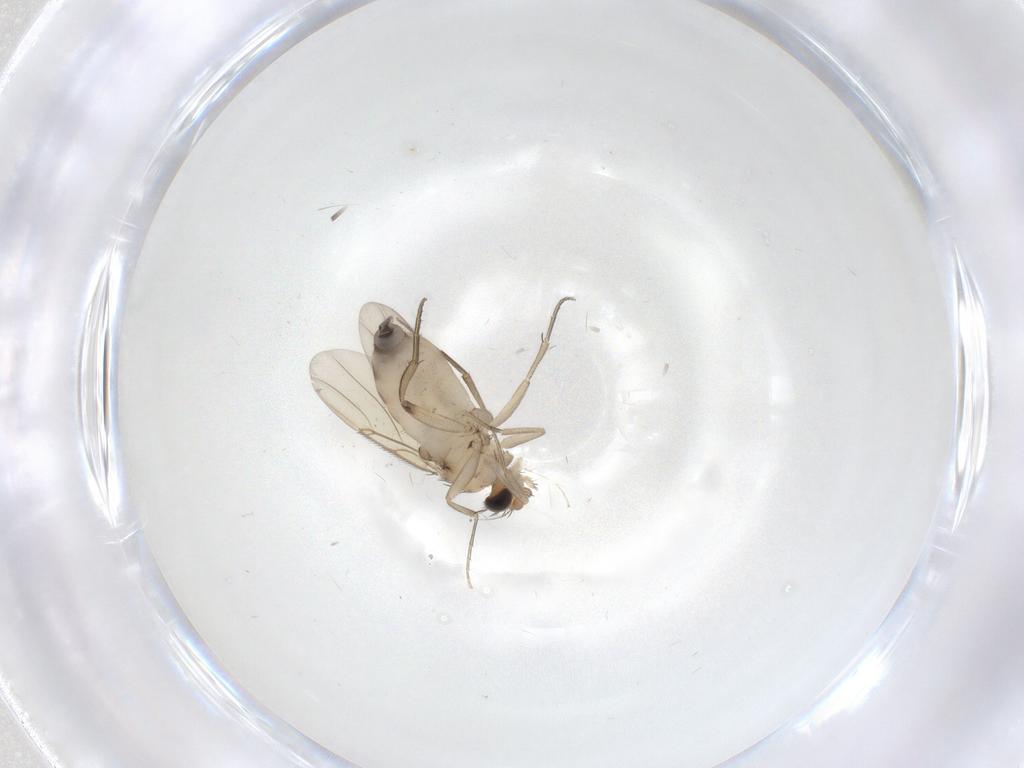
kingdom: Animalia
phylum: Arthropoda
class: Insecta
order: Diptera
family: Phoridae
